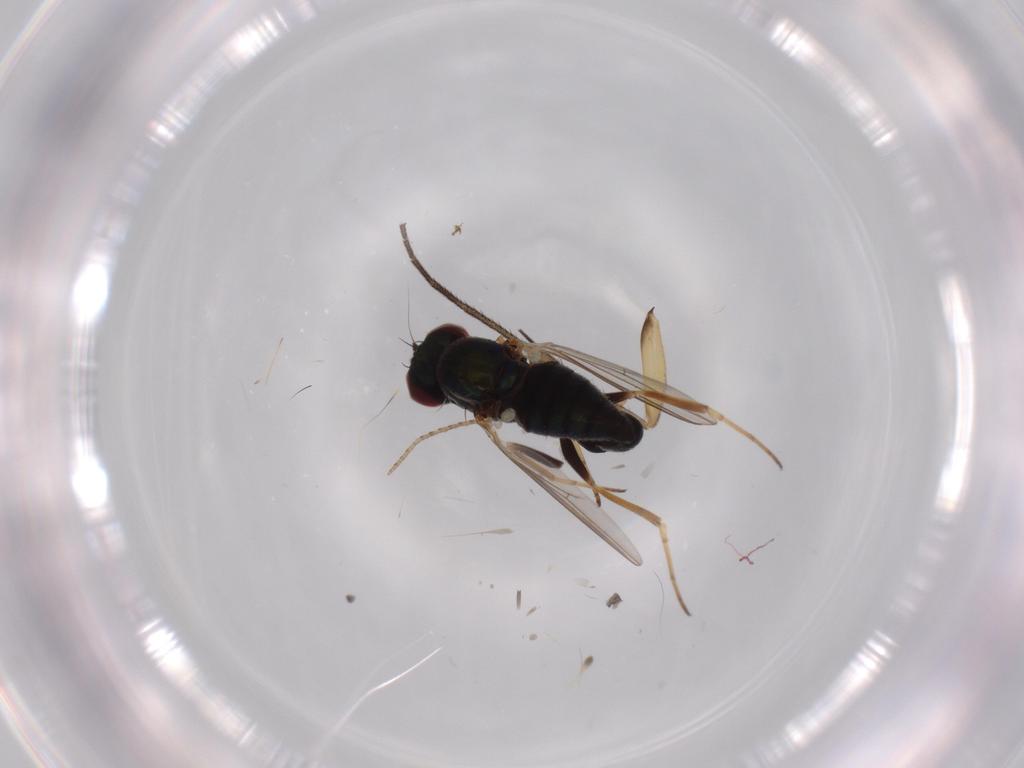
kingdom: Animalia
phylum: Arthropoda
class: Insecta
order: Diptera
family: Dolichopodidae
